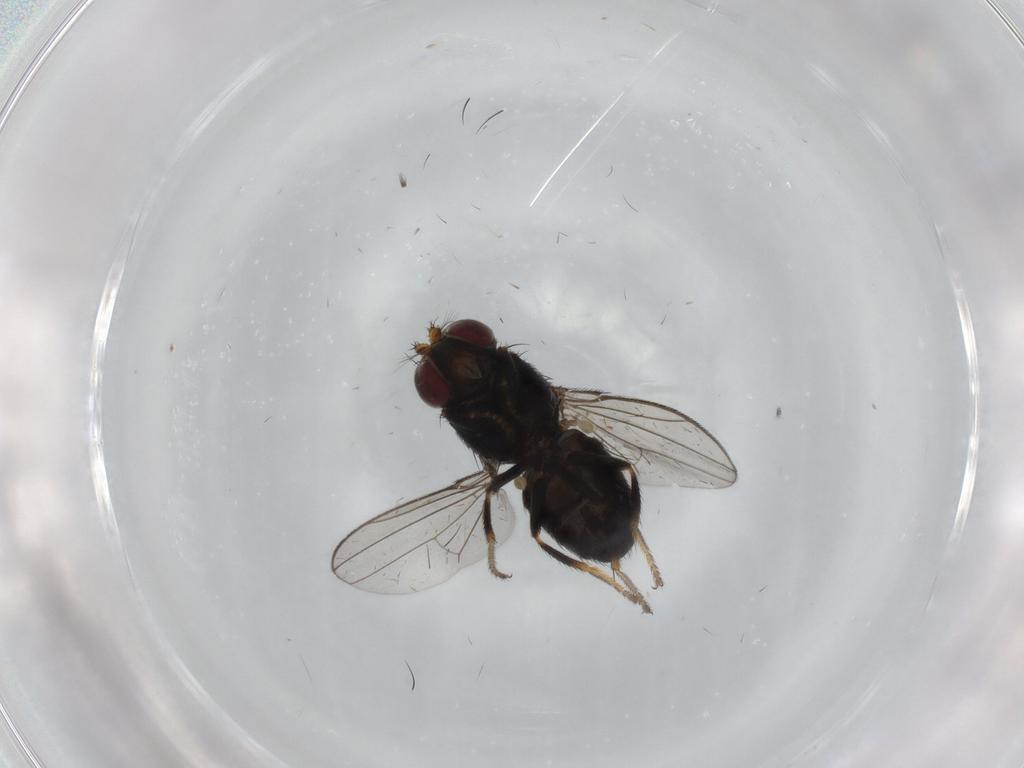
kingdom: Animalia
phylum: Arthropoda
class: Insecta
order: Diptera
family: Ephydridae
